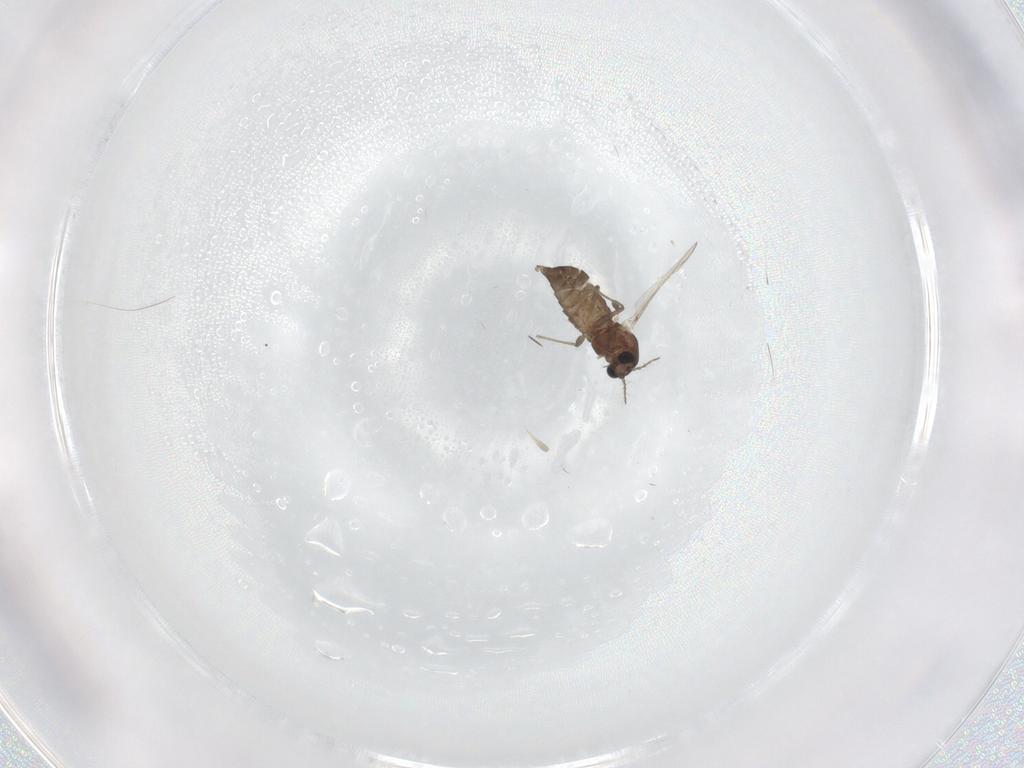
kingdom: Animalia
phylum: Arthropoda
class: Insecta
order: Diptera
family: Chironomidae
